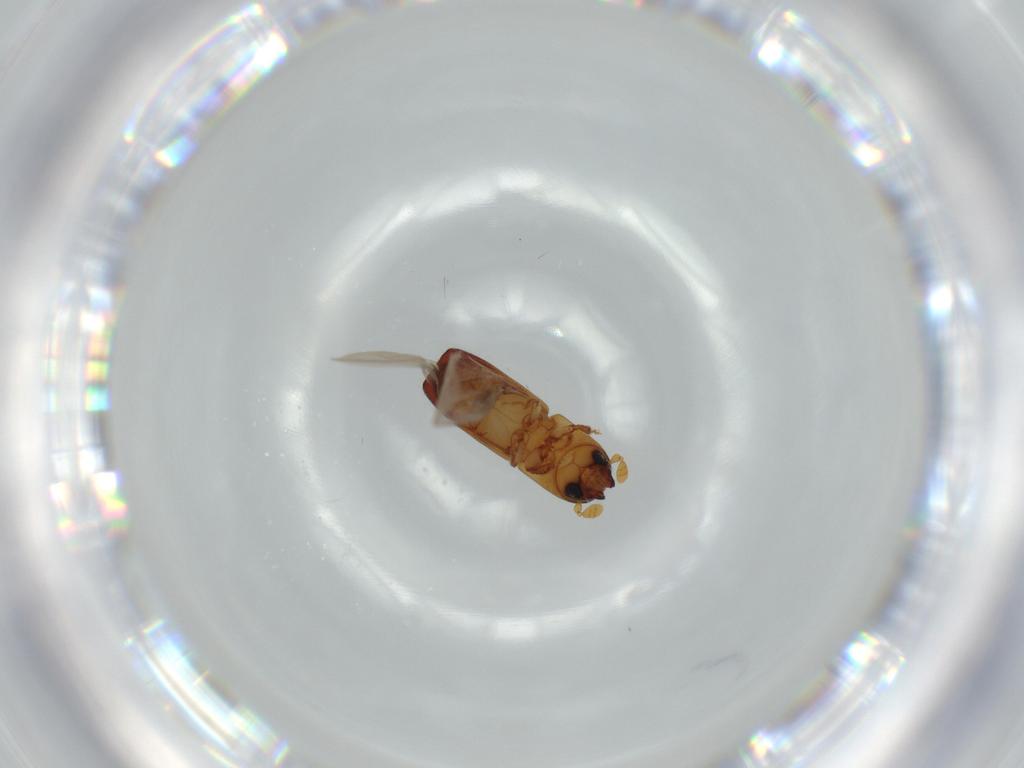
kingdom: Animalia
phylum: Arthropoda
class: Insecta
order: Coleoptera
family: Curculionidae
